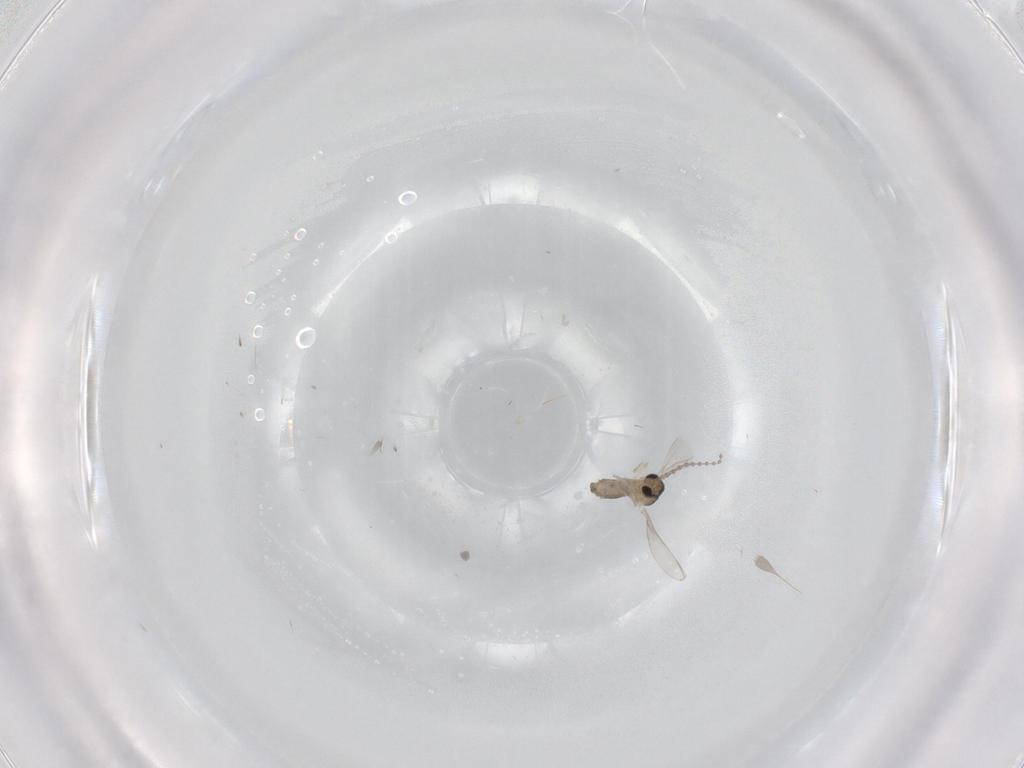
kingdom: Animalia
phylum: Arthropoda
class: Insecta
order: Diptera
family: Cecidomyiidae
